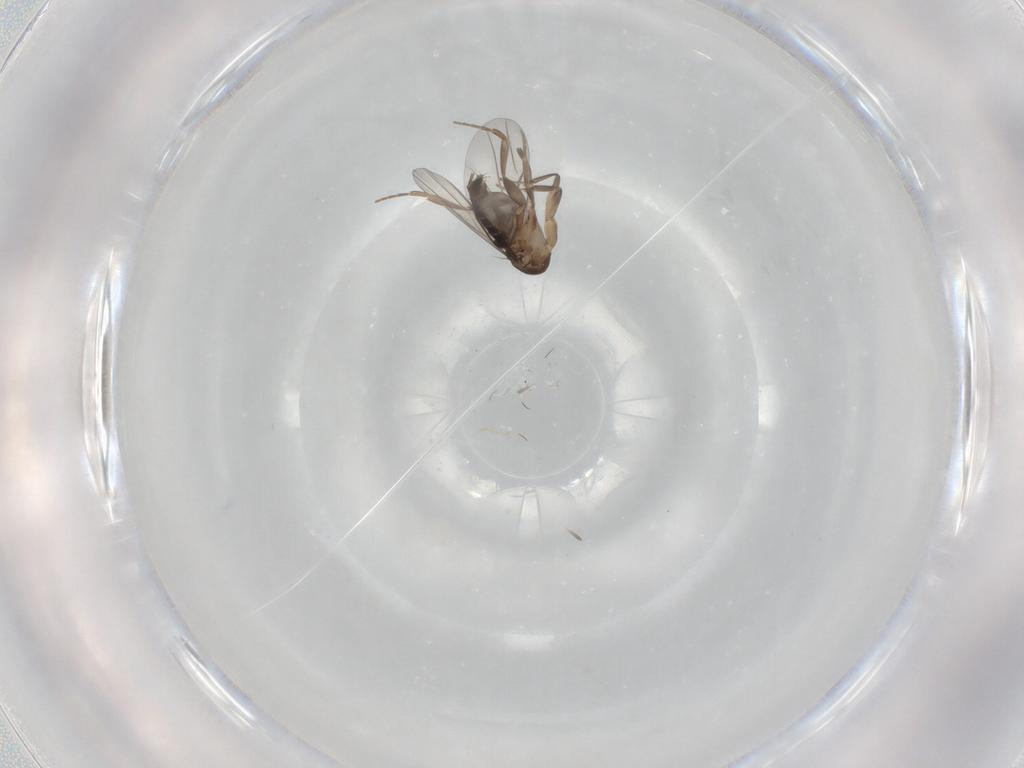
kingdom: Animalia
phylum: Arthropoda
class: Insecta
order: Diptera
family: Phoridae
